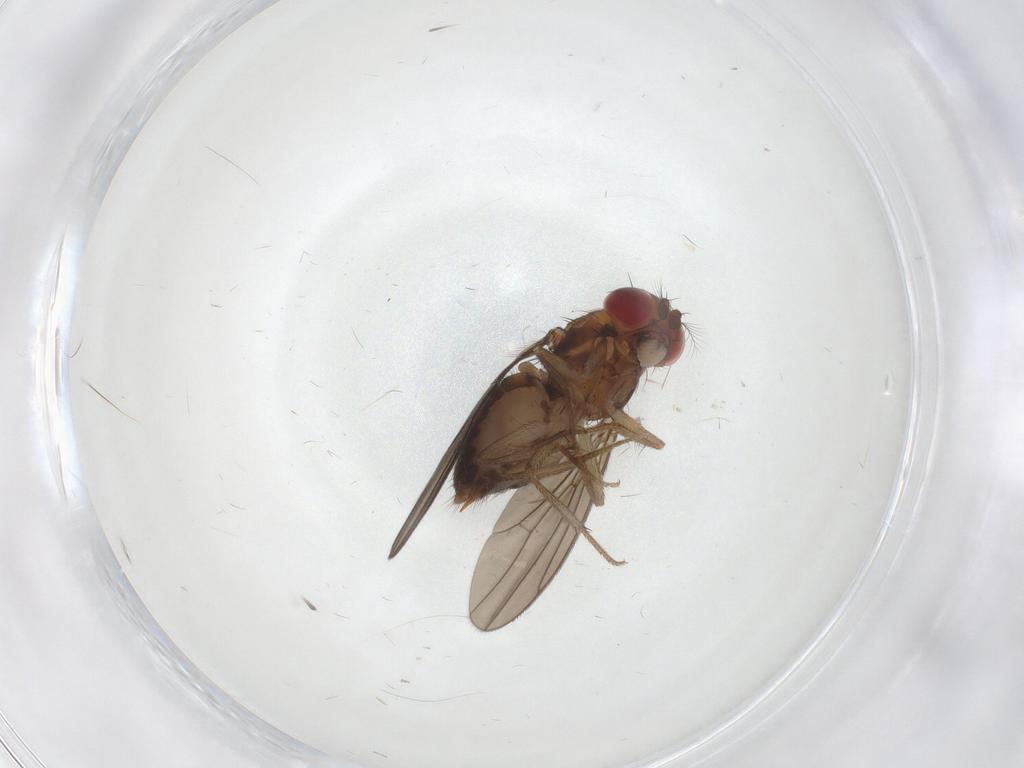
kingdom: Animalia
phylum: Arthropoda
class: Insecta
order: Diptera
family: Drosophilidae
